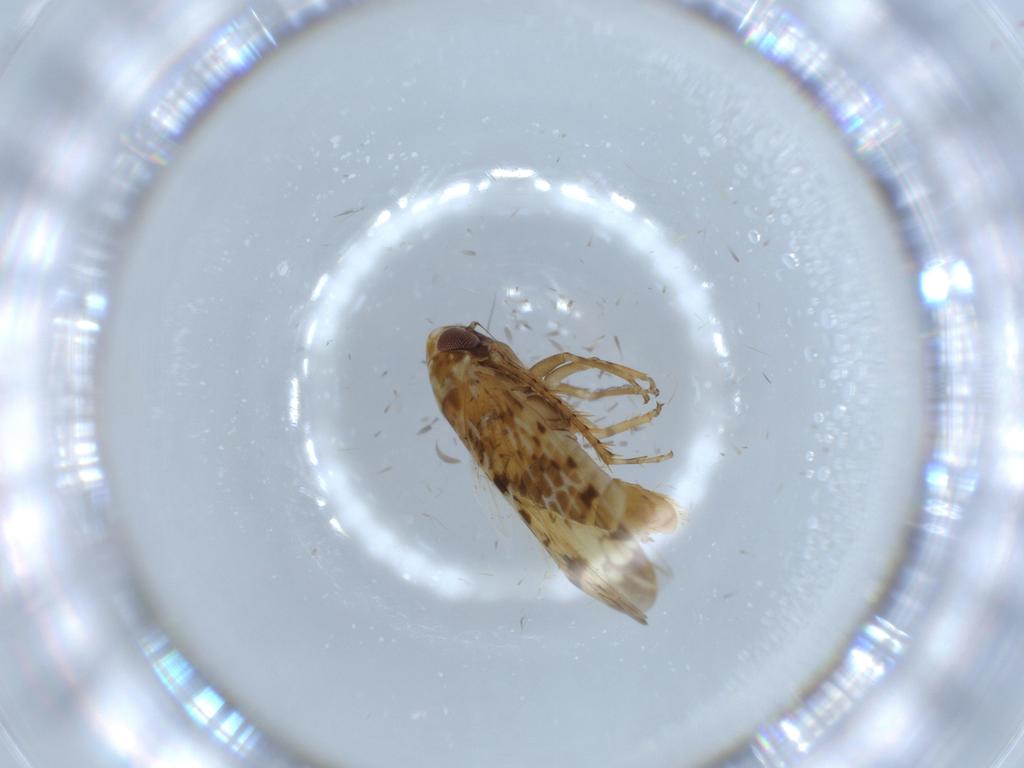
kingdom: Animalia
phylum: Arthropoda
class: Insecta
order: Hemiptera
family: Cicadellidae
